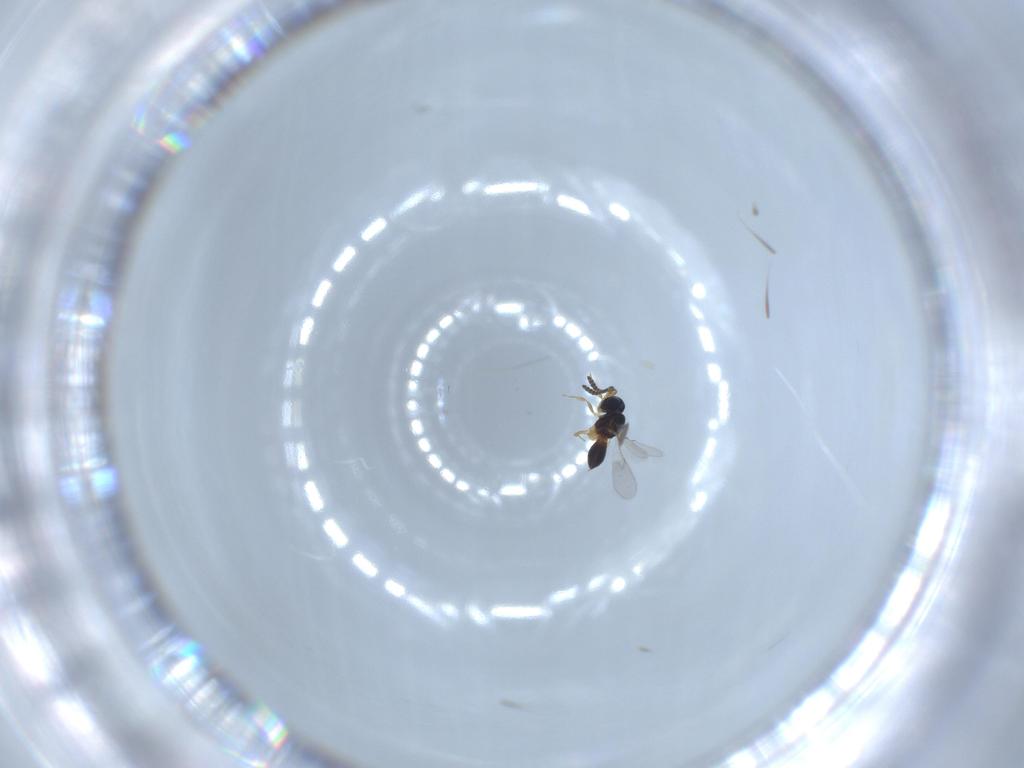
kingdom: Animalia
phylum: Arthropoda
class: Insecta
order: Hymenoptera
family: Scelionidae
